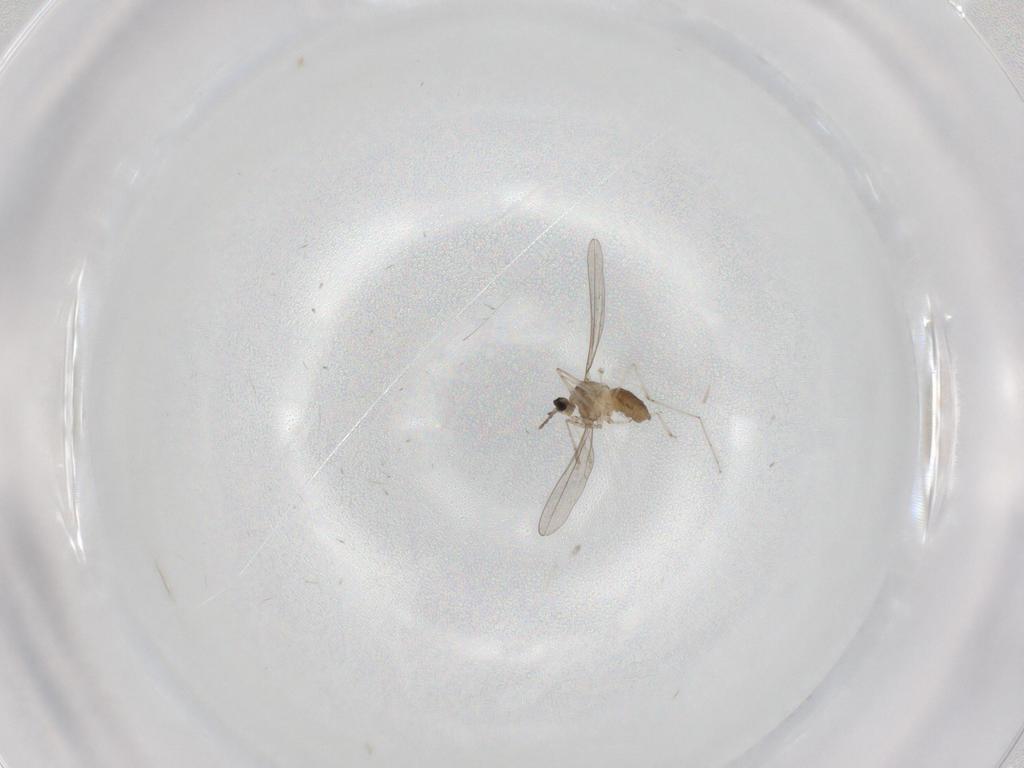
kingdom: Animalia
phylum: Arthropoda
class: Insecta
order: Diptera
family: Cecidomyiidae
